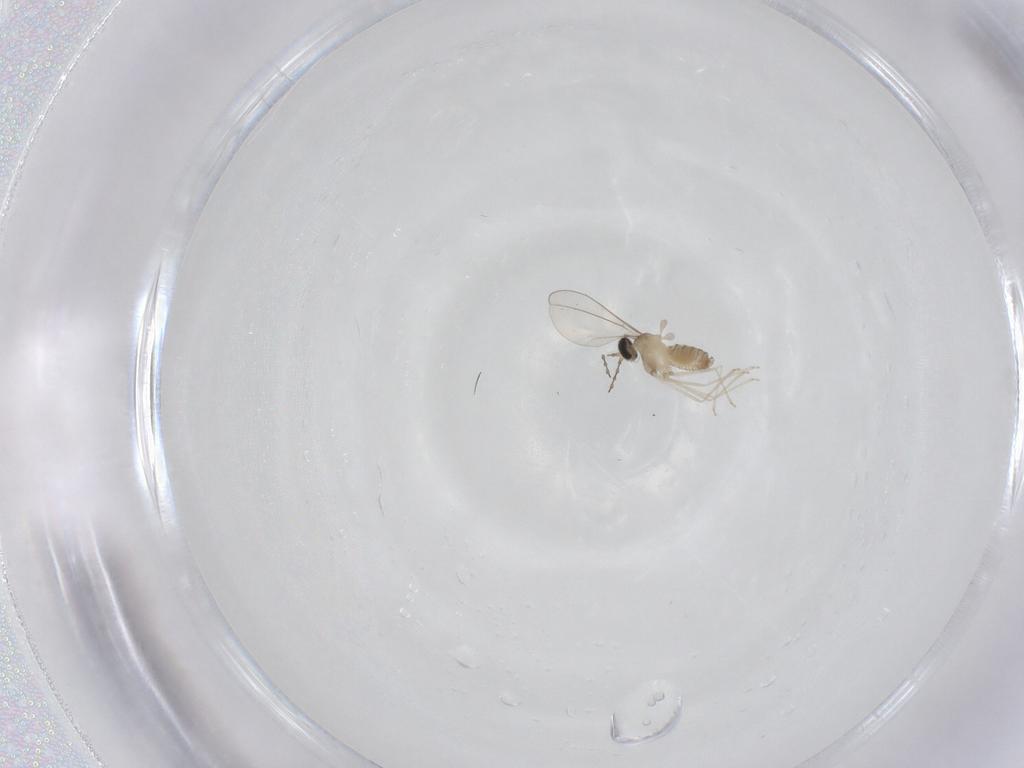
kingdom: Animalia
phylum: Arthropoda
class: Insecta
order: Diptera
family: Cecidomyiidae
